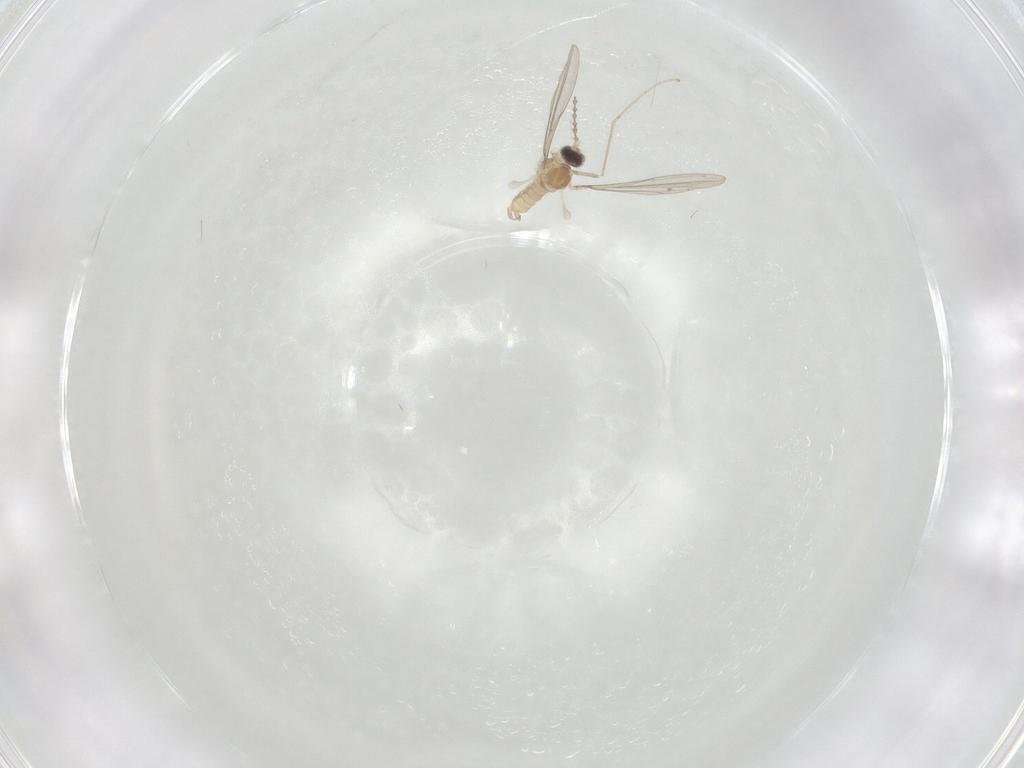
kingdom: Animalia
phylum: Arthropoda
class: Insecta
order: Diptera
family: Cecidomyiidae
